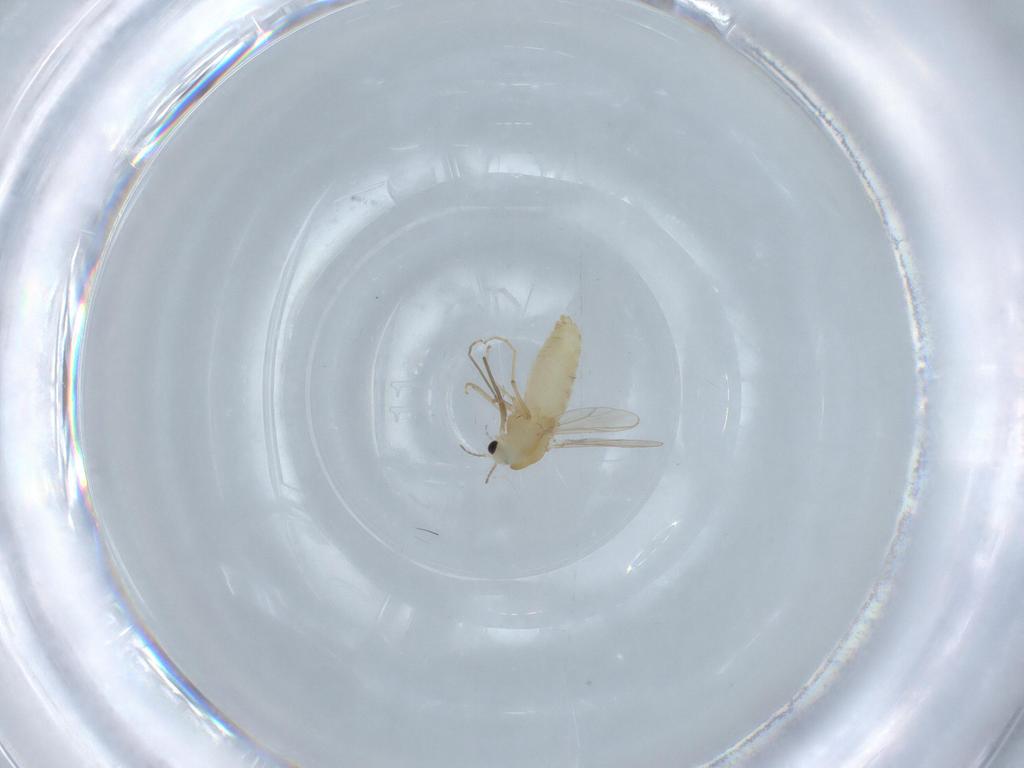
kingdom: Animalia
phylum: Arthropoda
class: Insecta
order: Diptera
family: Chironomidae
